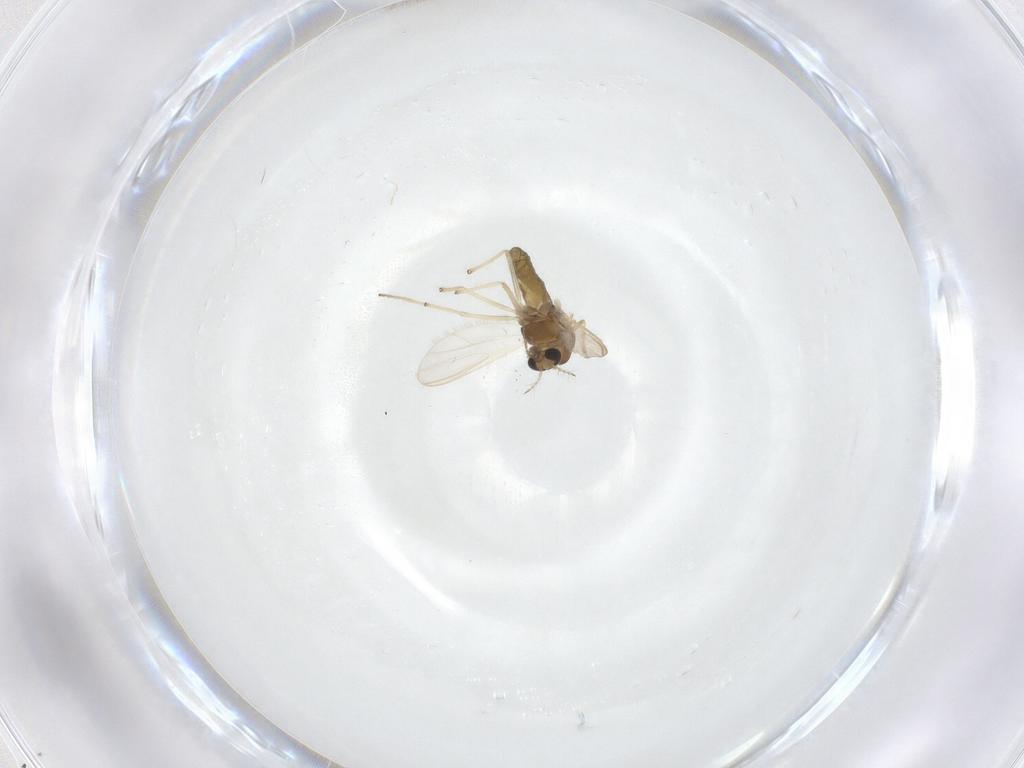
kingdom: Animalia
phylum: Arthropoda
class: Insecta
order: Diptera
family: Chironomidae
